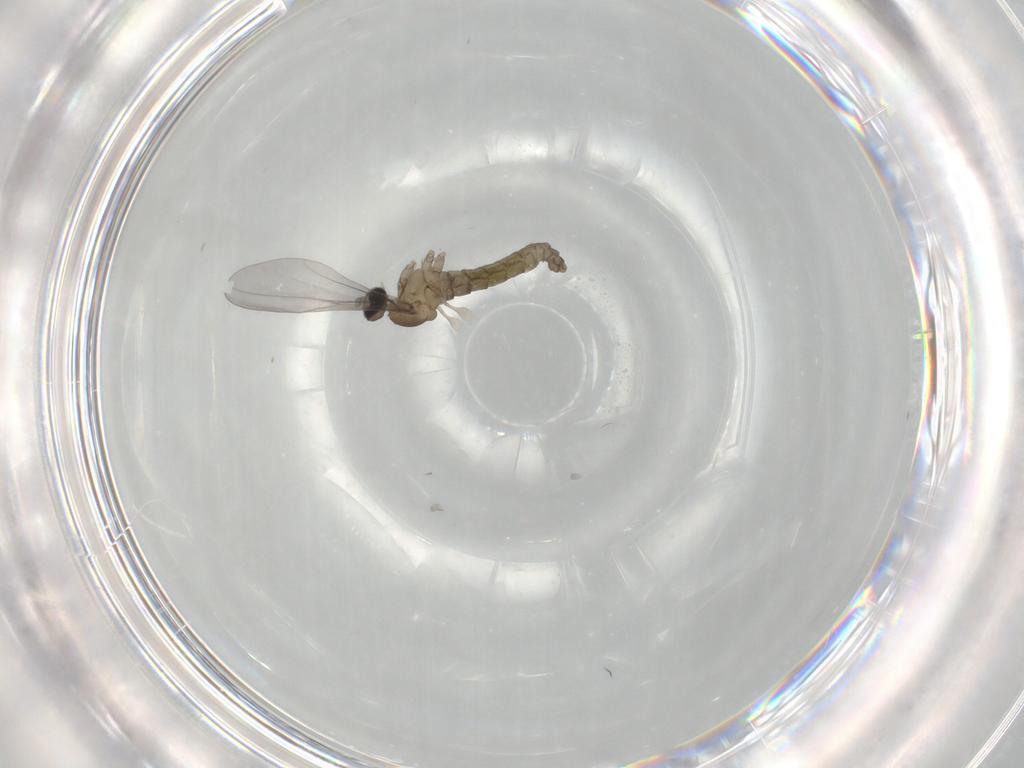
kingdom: Animalia
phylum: Arthropoda
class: Insecta
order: Diptera
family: Cecidomyiidae
